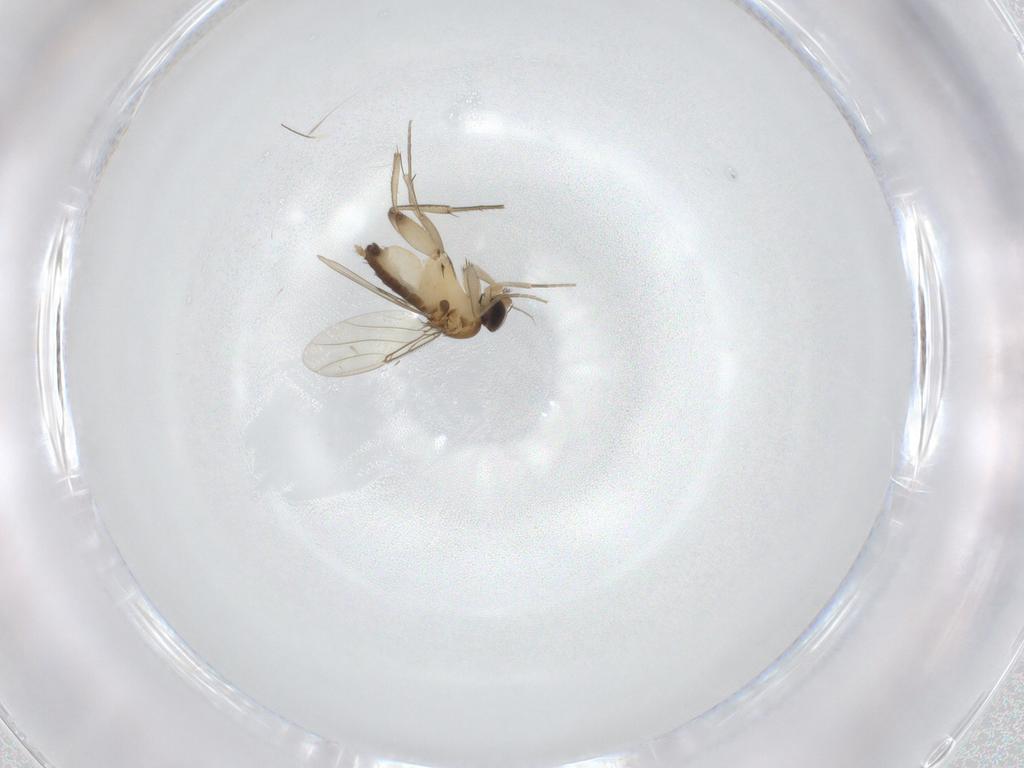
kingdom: Animalia
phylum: Arthropoda
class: Insecta
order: Diptera
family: Phoridae
